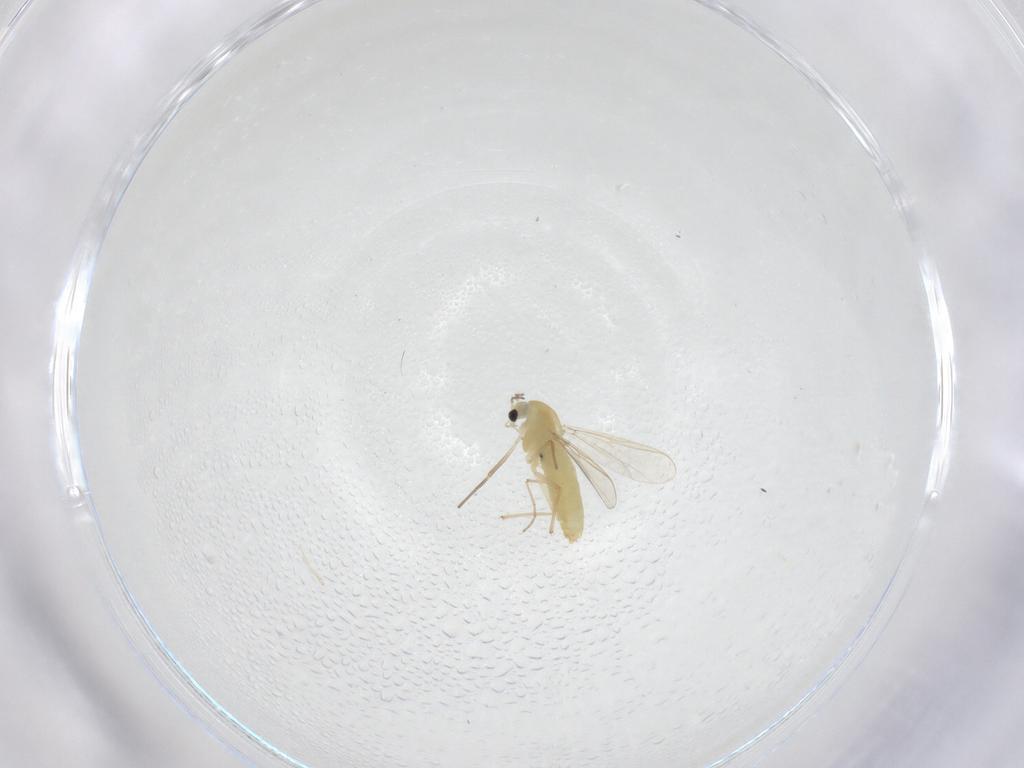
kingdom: Animalia
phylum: Arthropoda
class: Insecta
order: Diptera
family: Chironomidae
